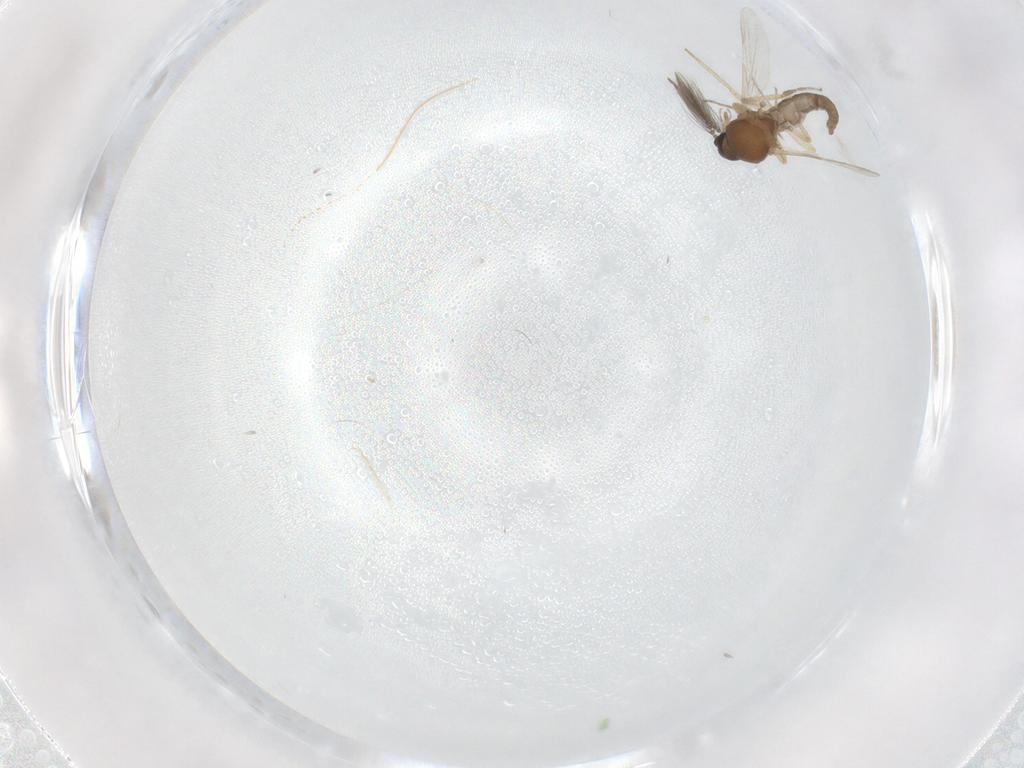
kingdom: Animalia
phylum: Arthropoda
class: Insecta
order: Diptera
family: Ceratopogonidae
